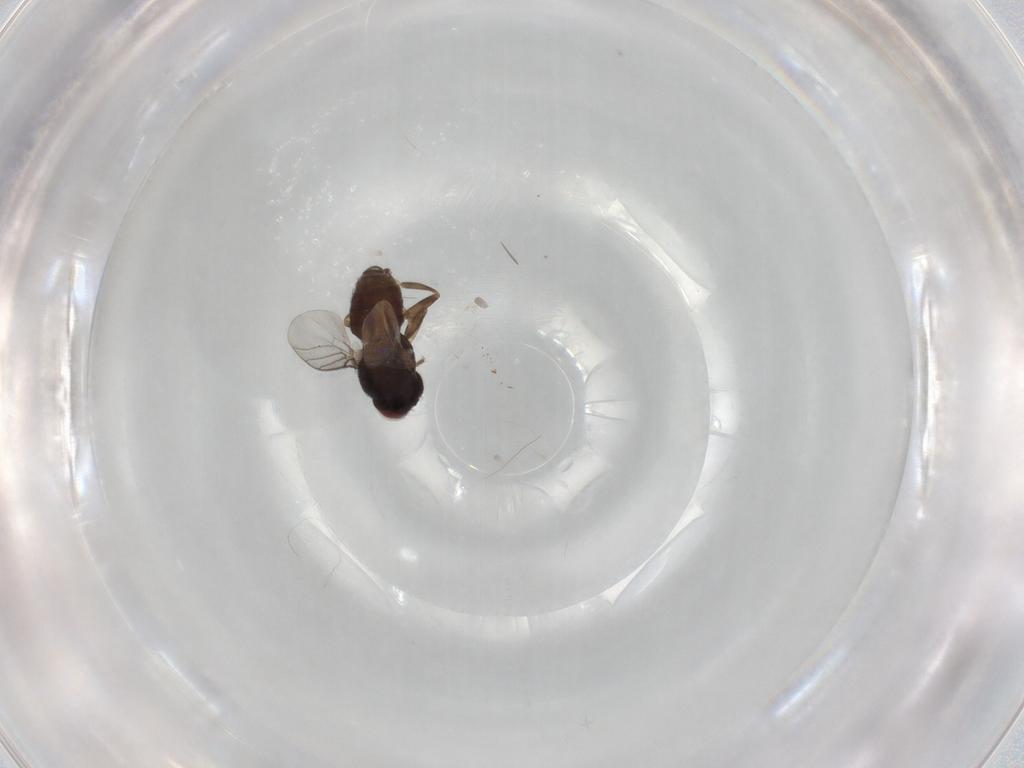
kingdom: Animalia
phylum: Arthropoda
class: Insecta
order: Diptera
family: Chloropidae
